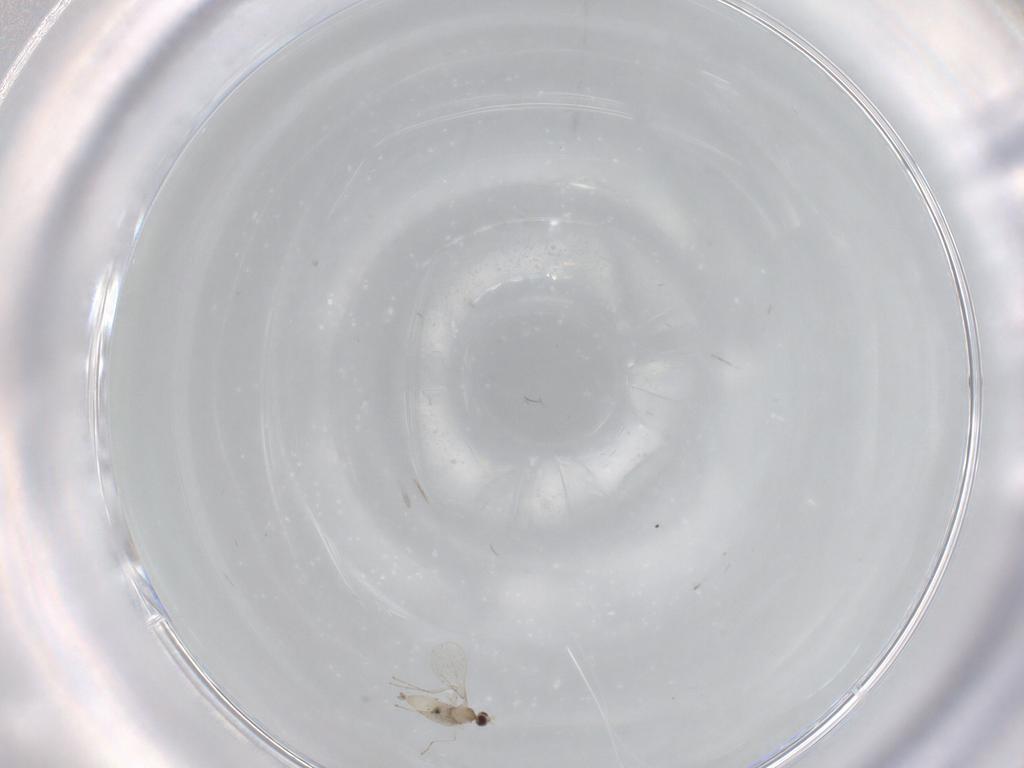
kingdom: Animalia
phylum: Arthropoda
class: Insecta
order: Diptera
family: Cecidomyiidae
